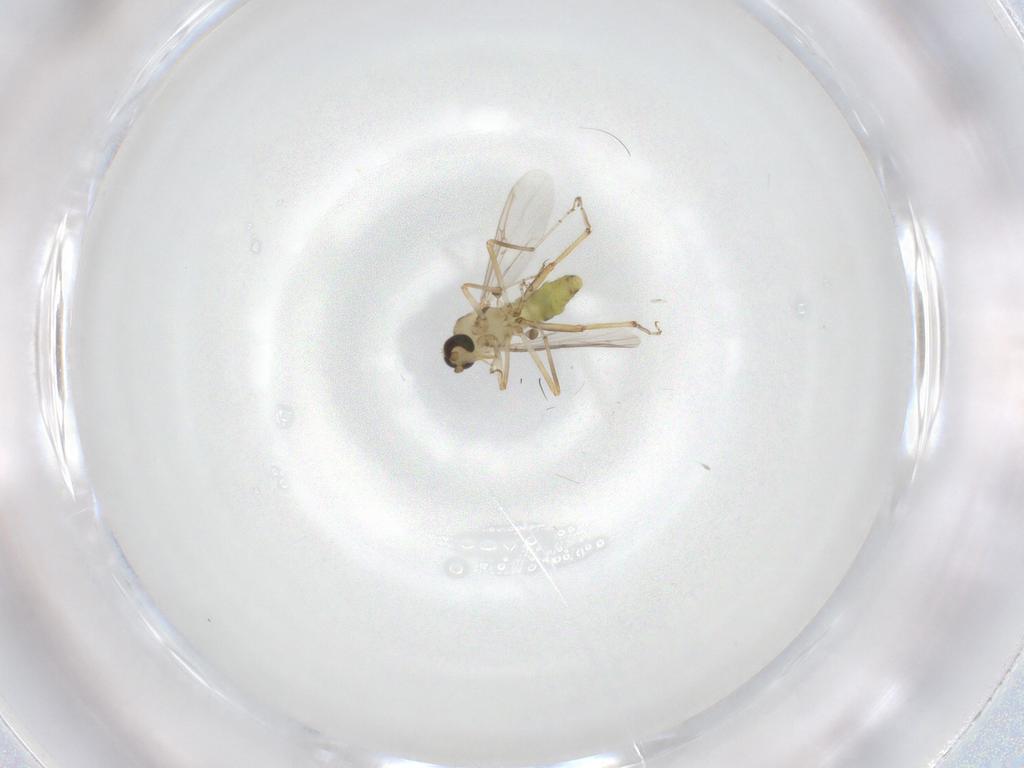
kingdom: Animalia
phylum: Arthropoda
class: Insecta
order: Diptera
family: Ceratopogonidae
